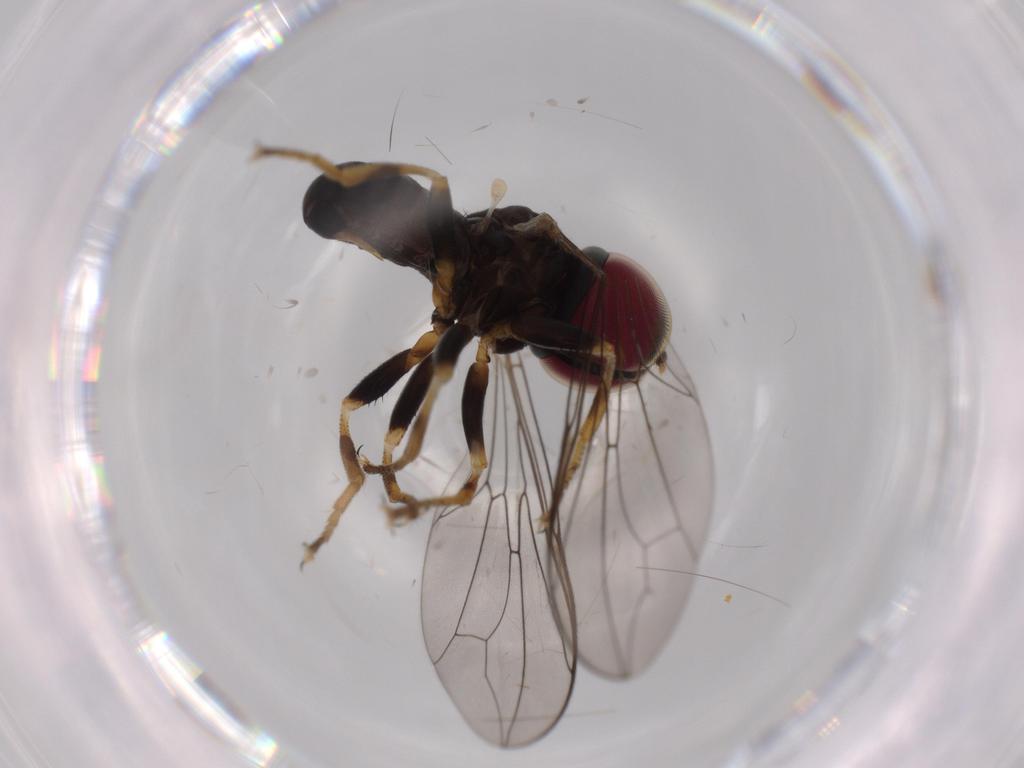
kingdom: Animalia
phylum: Arthropoda
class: Insecta
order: Diptera
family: Pipunculidae
